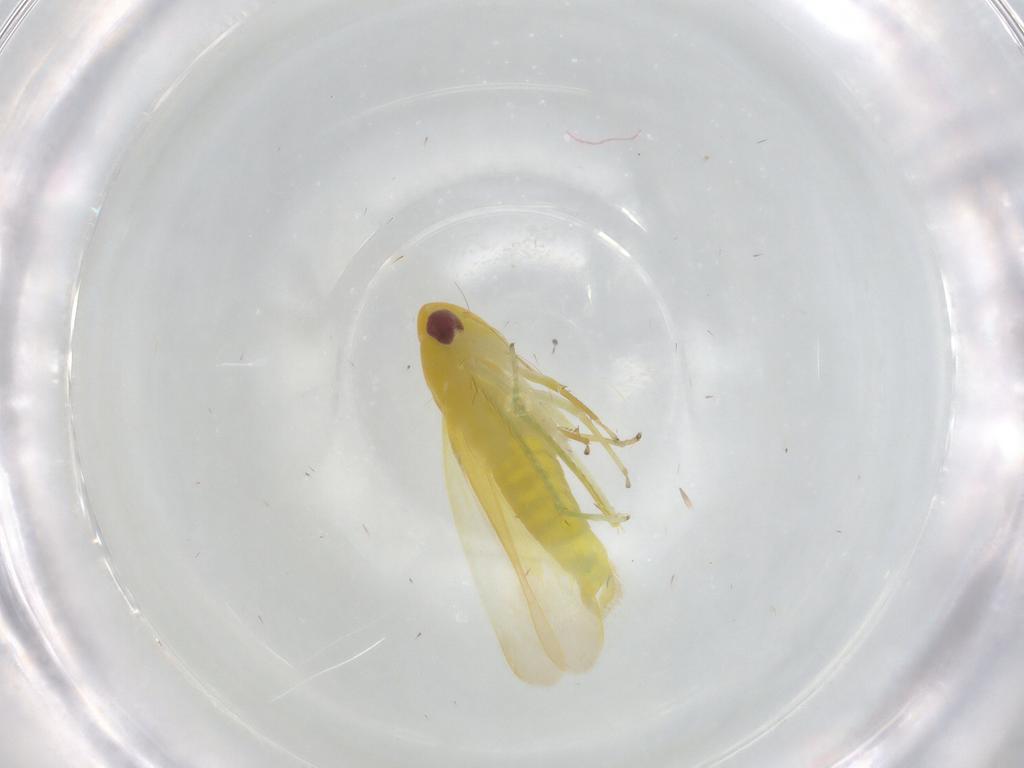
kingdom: Animalia
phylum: Arthropoda
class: Insecta
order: Hemiptera
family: Cicadellidae
